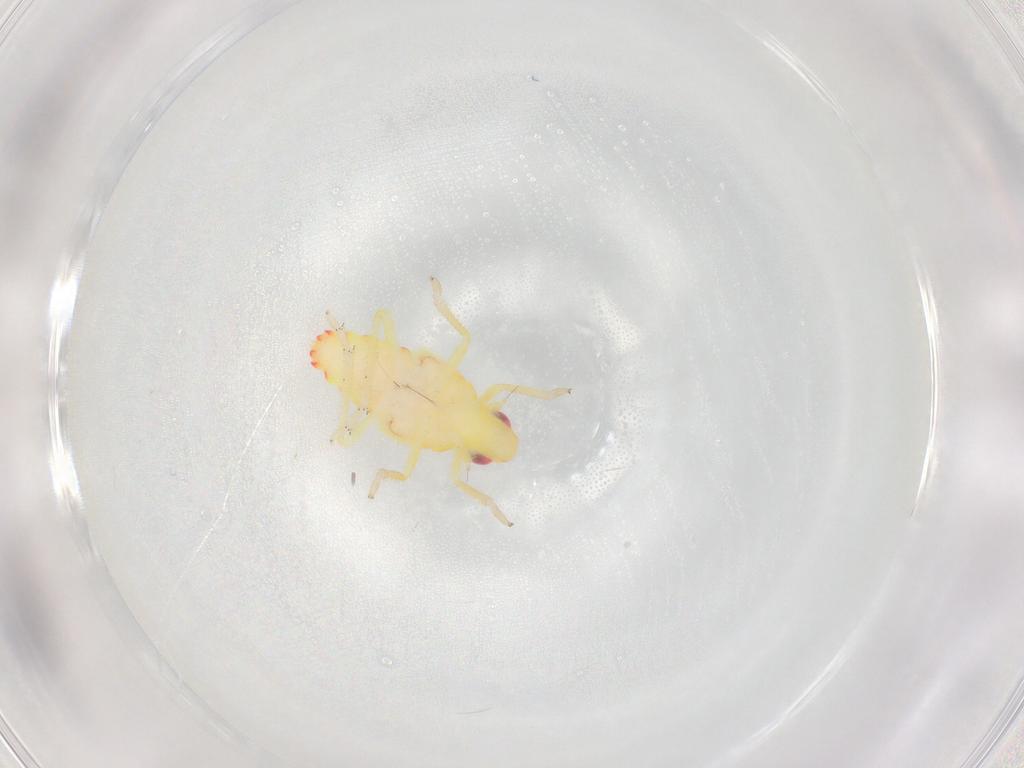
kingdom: Animalia
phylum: Arthropoda
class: Insecta
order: Hemiptera
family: Tropiduchidae
